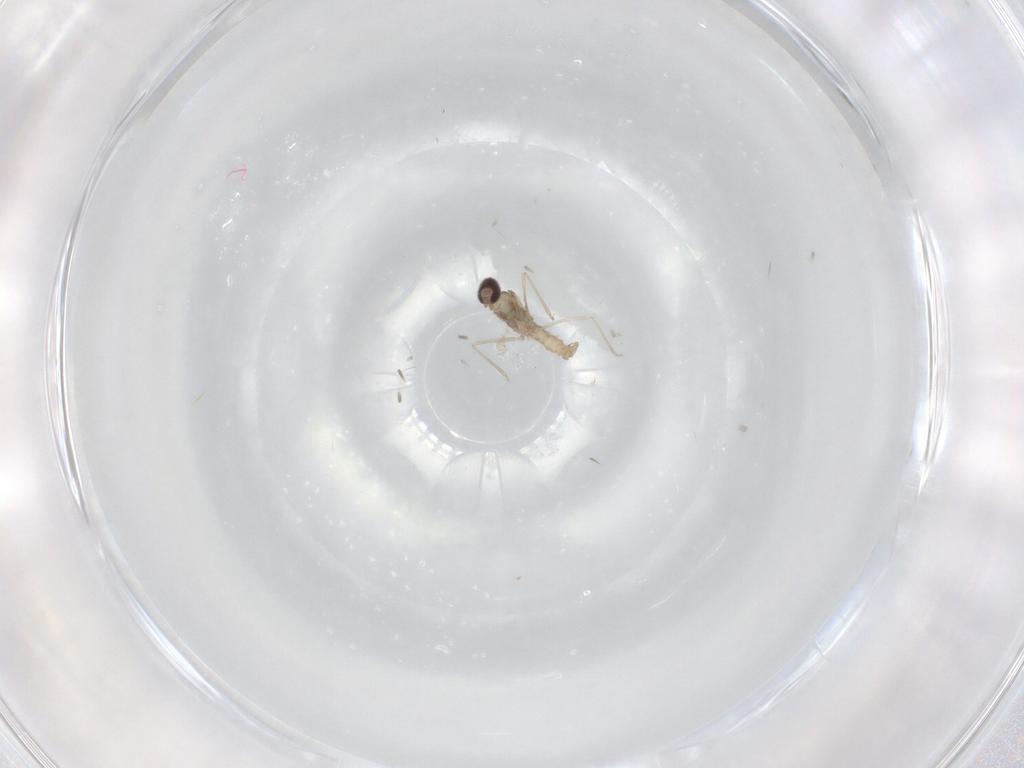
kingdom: Animalia
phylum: Arthropoda
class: Insecta
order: Diptera
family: Cecidomyiidae
